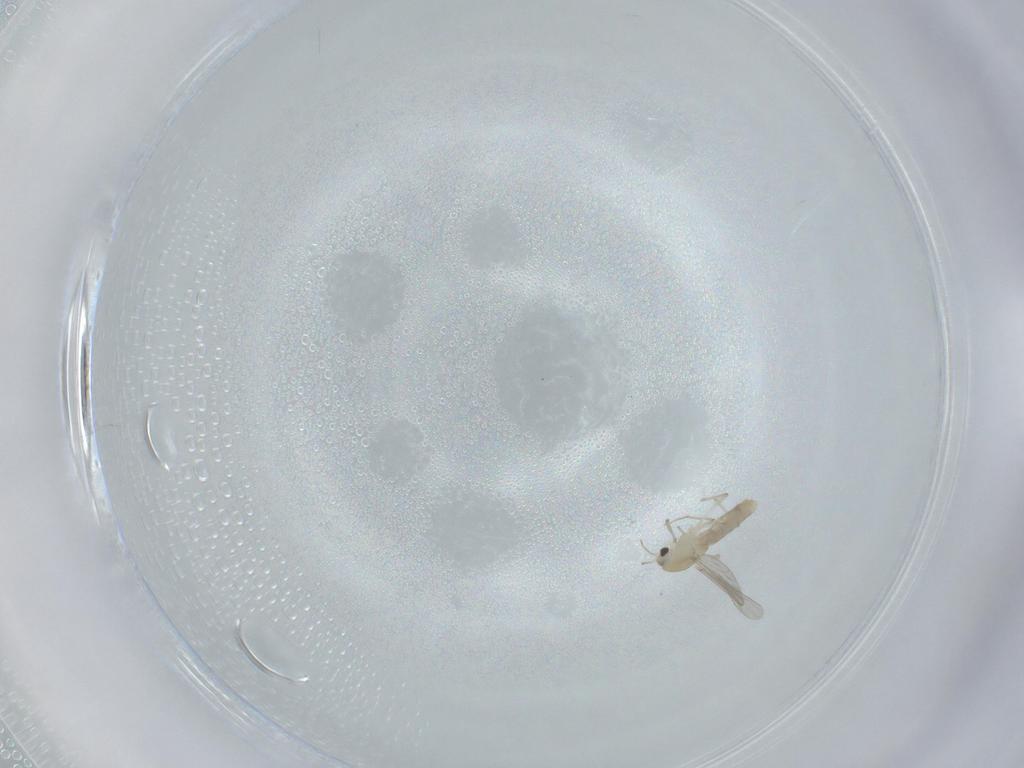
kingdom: Animalia
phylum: Arthropoda
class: Insecta
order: Diptera
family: Chironomidae
